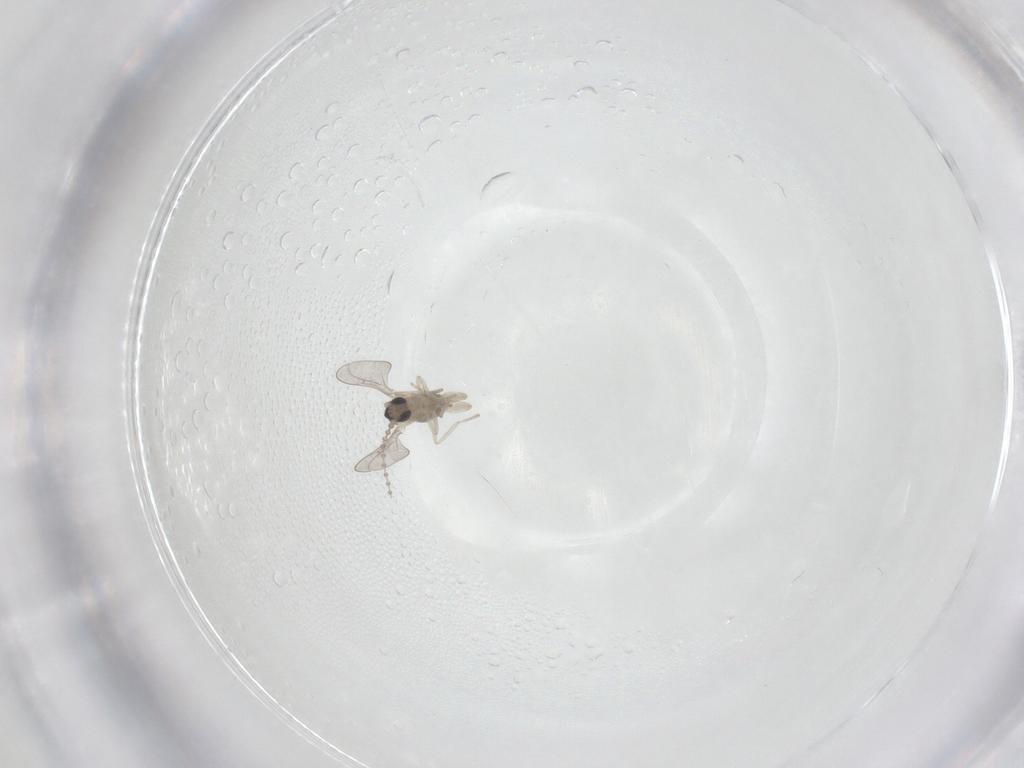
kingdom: Animalia
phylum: Arthropoda
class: Insecta
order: Diptera
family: Cecidomyiidae
